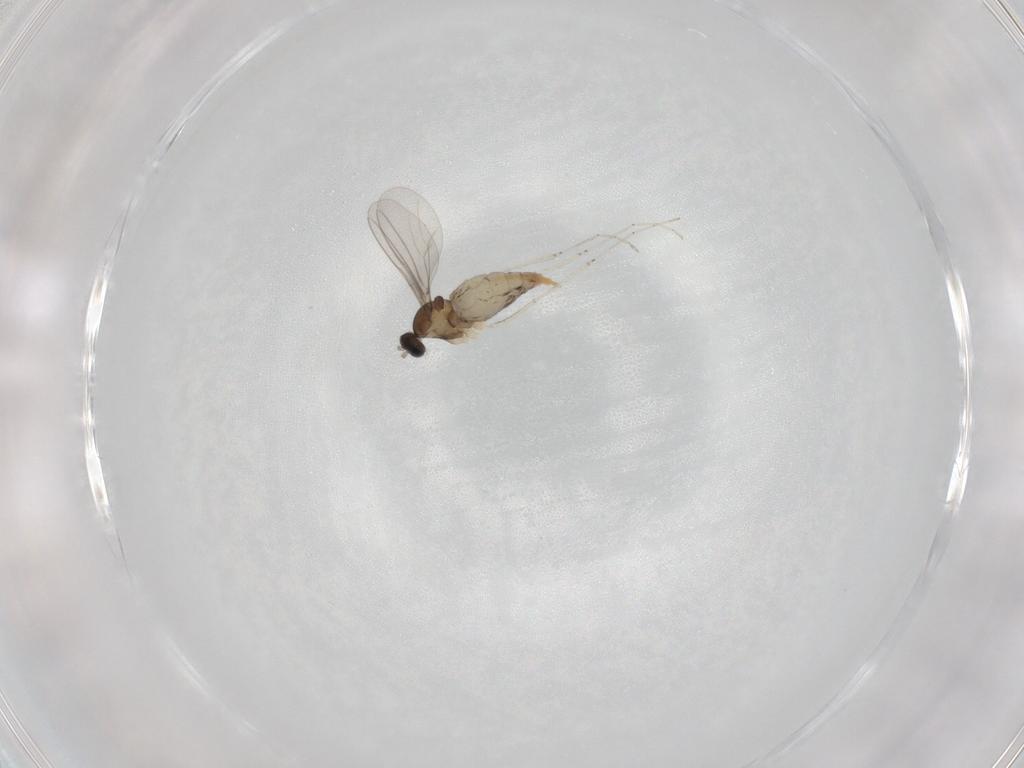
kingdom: Animalia
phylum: Arthropoda
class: Insecta
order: Diptera
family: Cecidomyiidae
